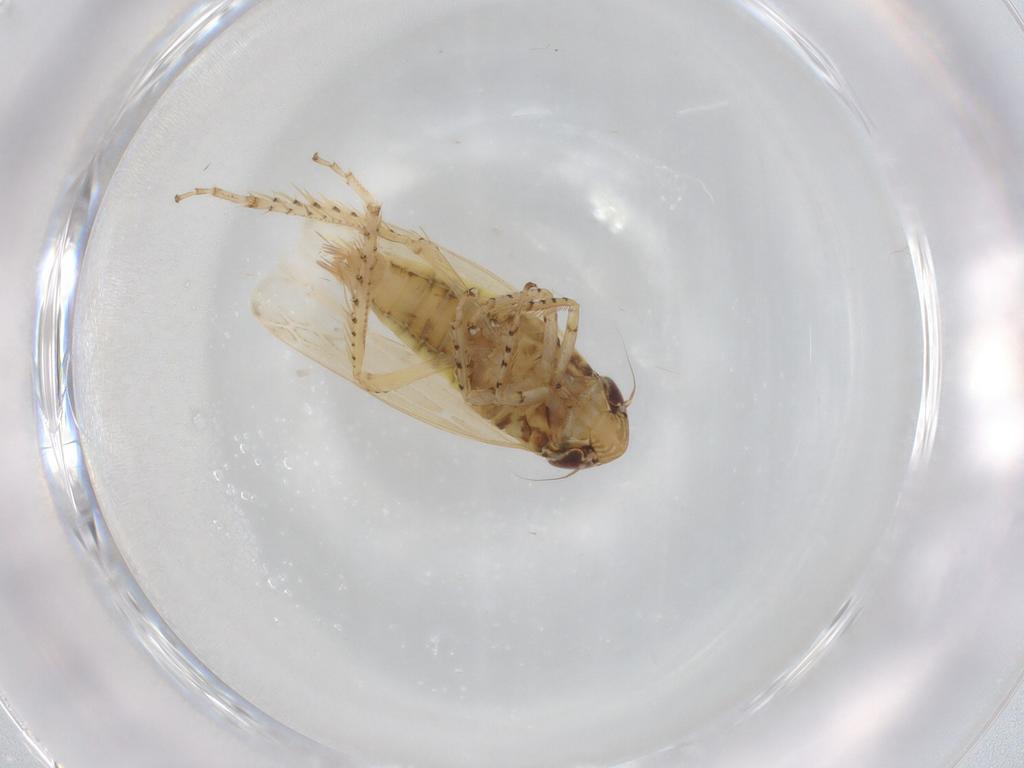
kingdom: Animalia
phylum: Arthropoda
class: Insecta
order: Hemiptera
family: Cicadellidae
